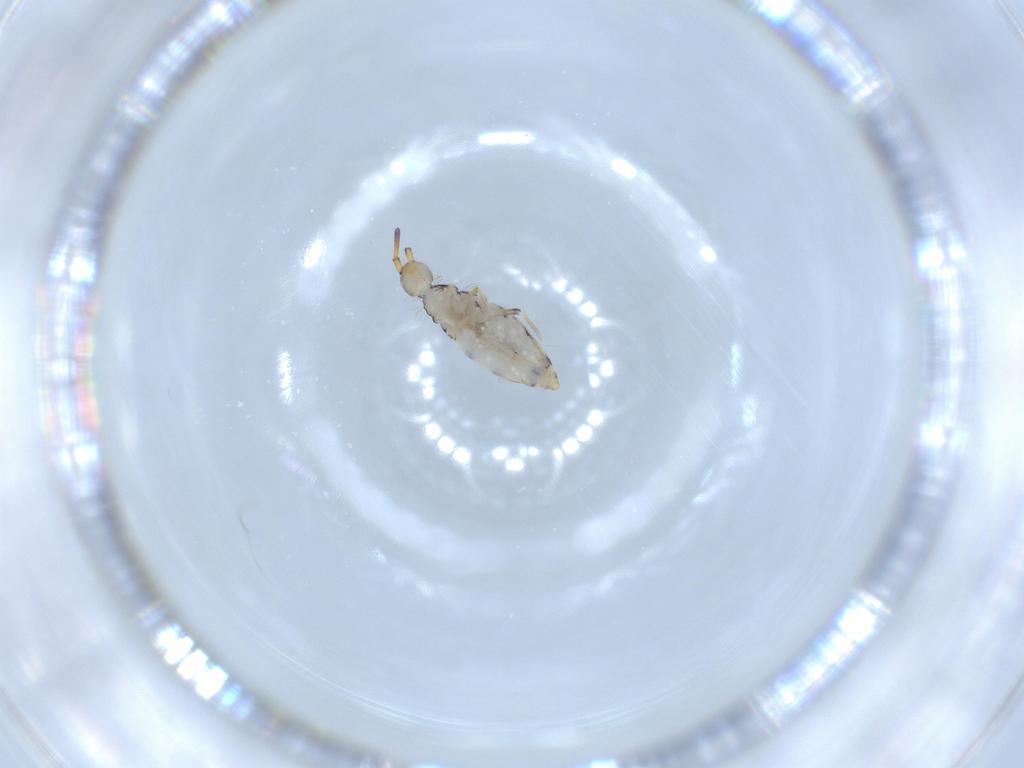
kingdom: Animalia
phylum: Arthropoda
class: Collembola
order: Entomobryomorpha
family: Entomobryidae
